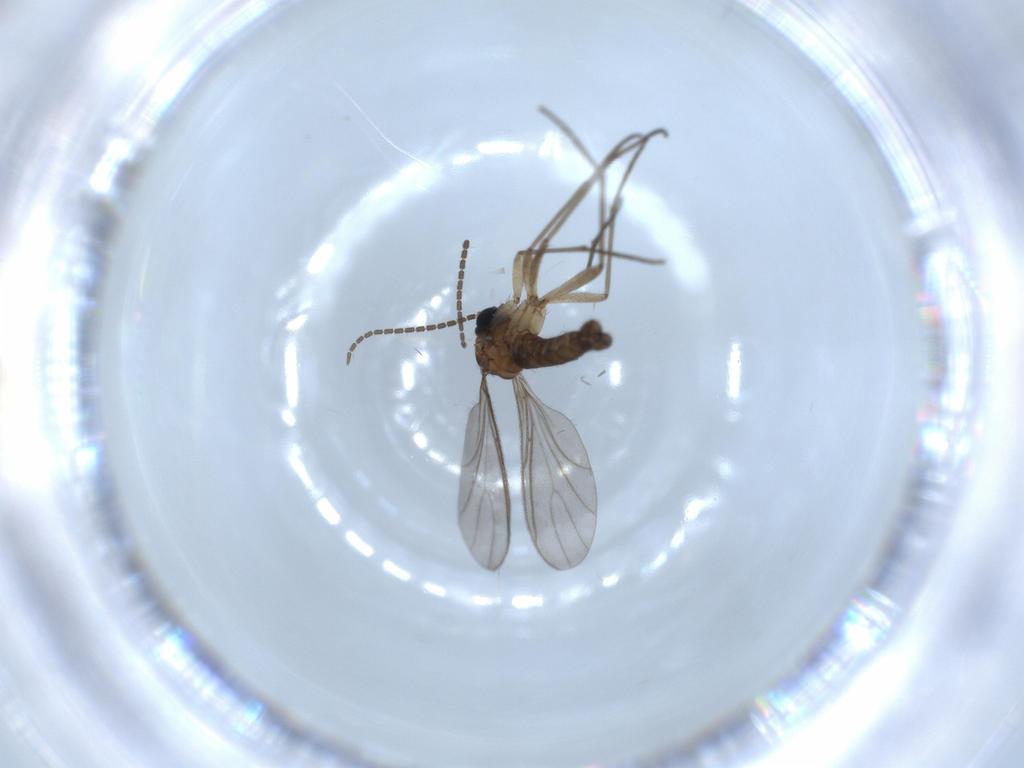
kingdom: Animalia
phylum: Arthropoda
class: Insecta
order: Diptera
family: Sciaridae
